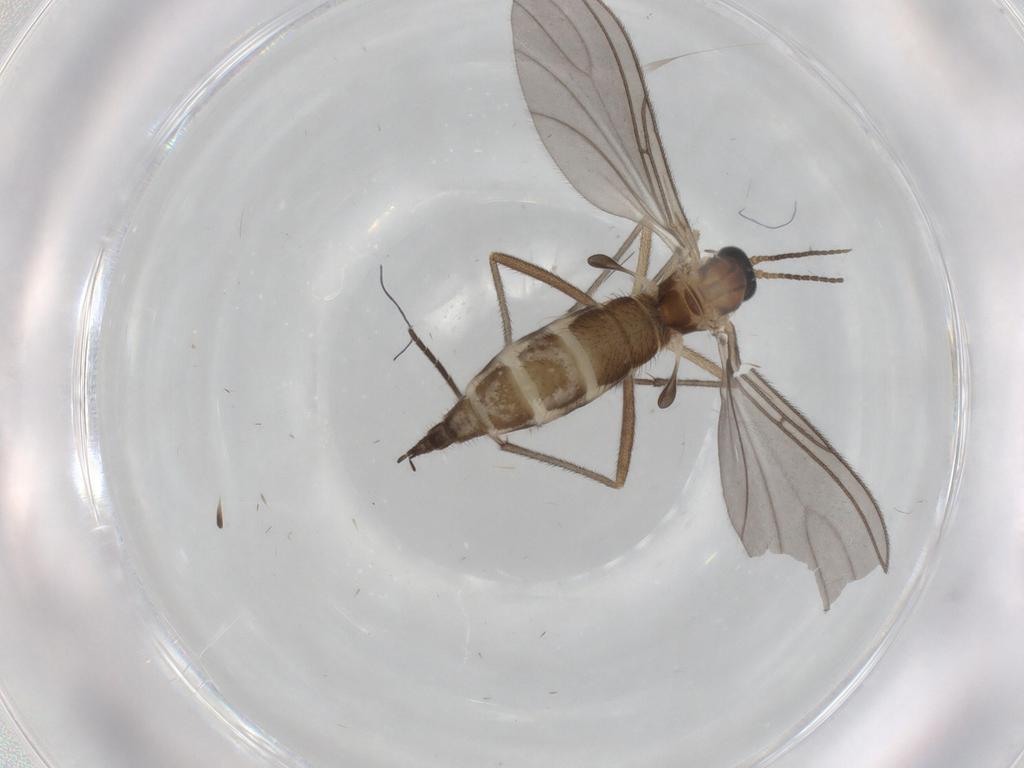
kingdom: Animalia
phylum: Arthropoda
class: Insecta
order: Diptera
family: Sciaridae
